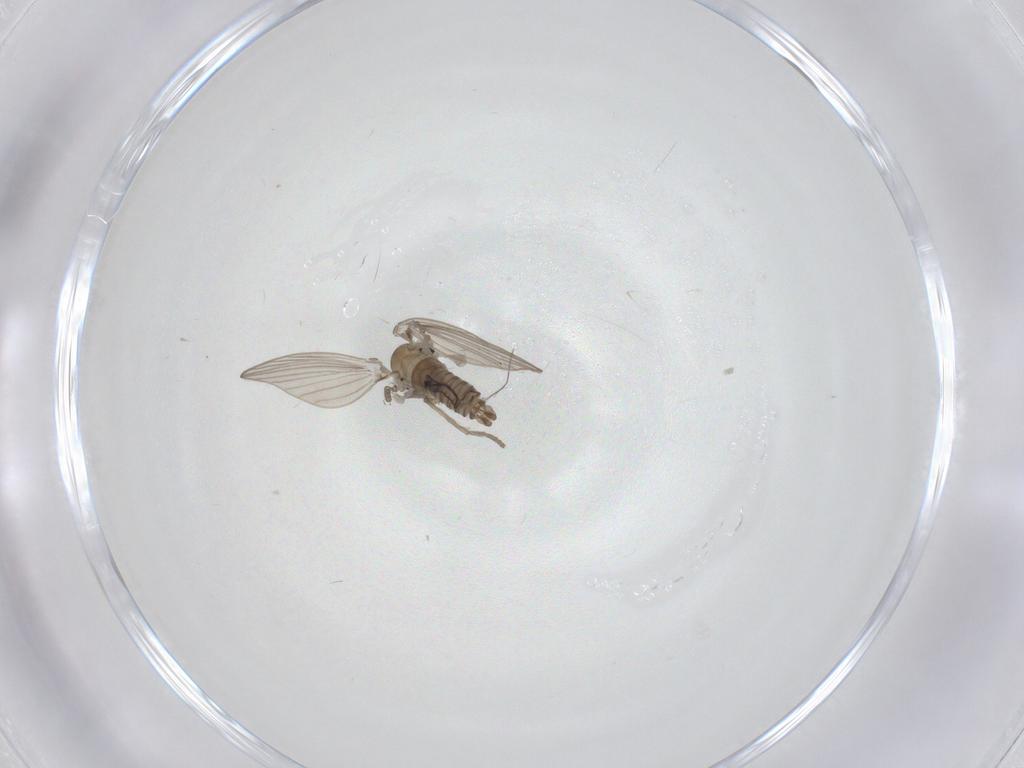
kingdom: Animalia
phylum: Arthropoda
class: Insecta
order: Diptera
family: Psychodidae
